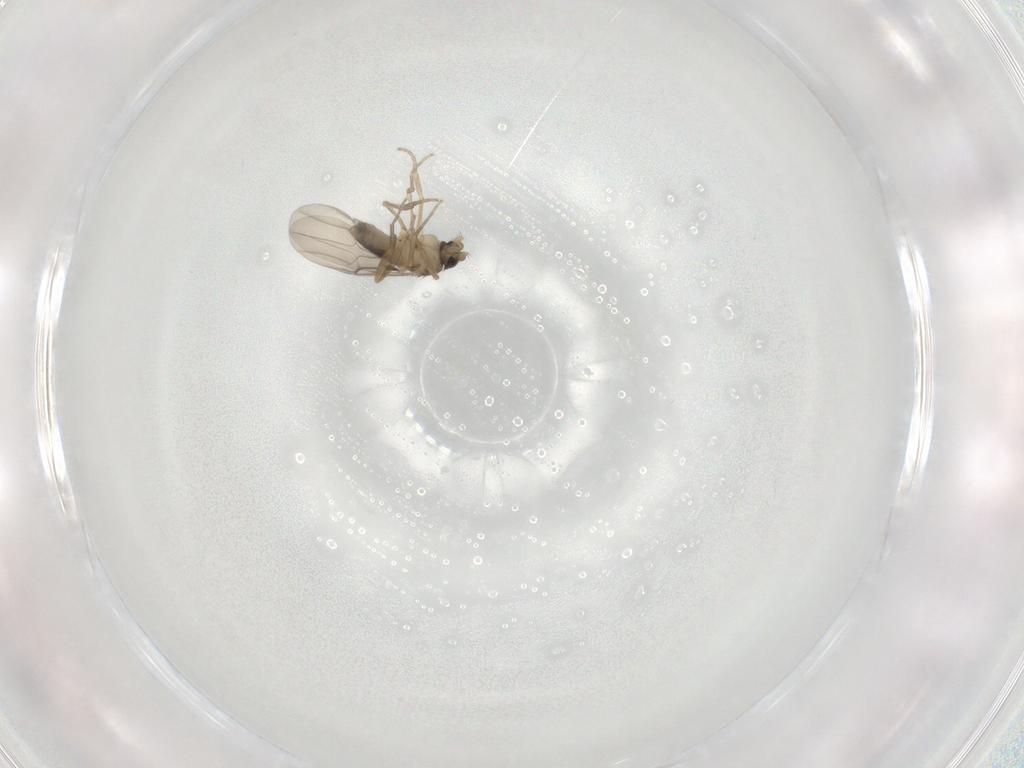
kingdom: Animalia
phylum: Arthropoda
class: Insecta
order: Diptera
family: Phoridae
